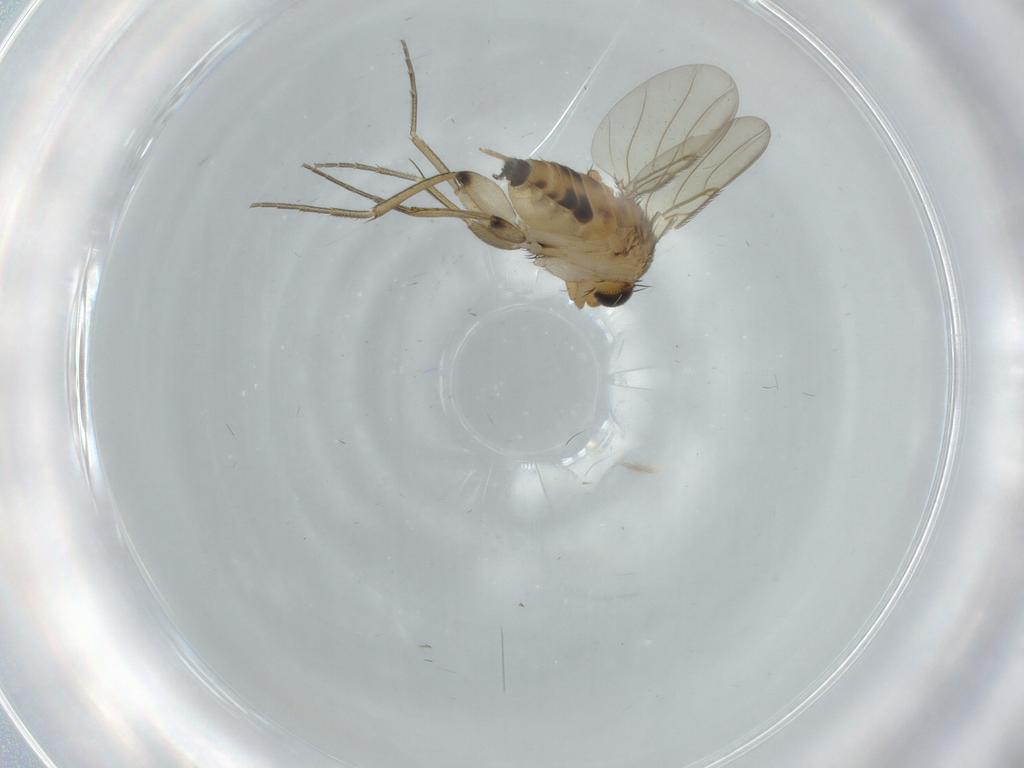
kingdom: Animalia
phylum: Arthropoda
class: Insecta
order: Diptera
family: Phoridae
